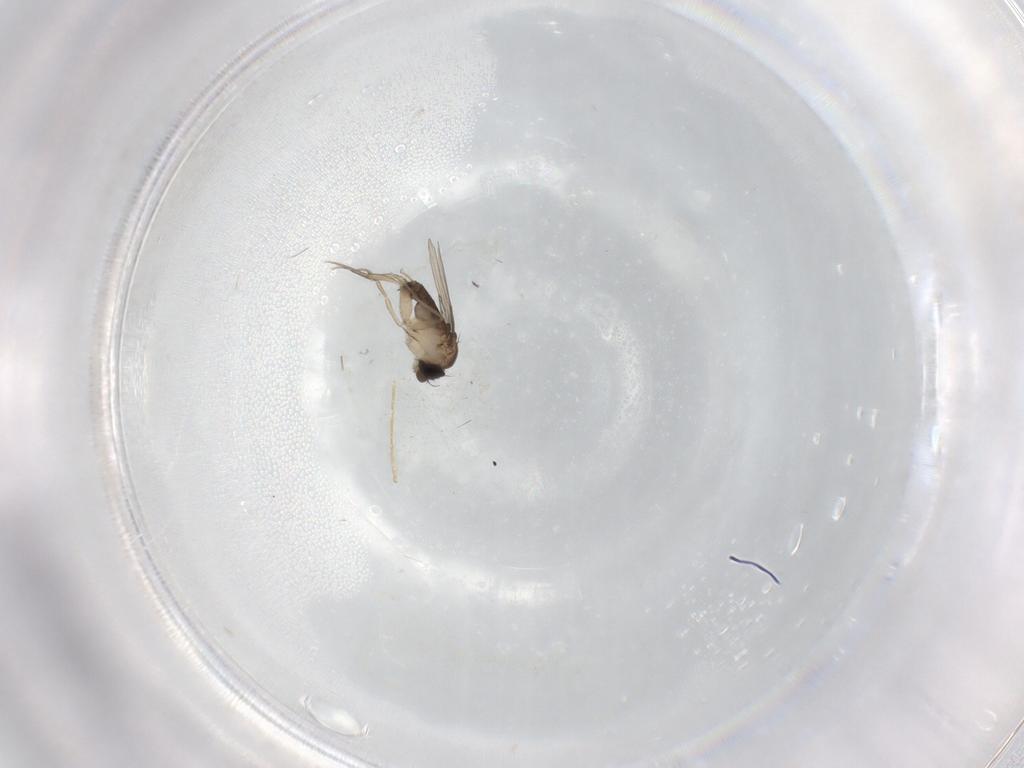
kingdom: Animalia
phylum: Arthropoda
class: Insecta
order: Diptera
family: Phoridae
